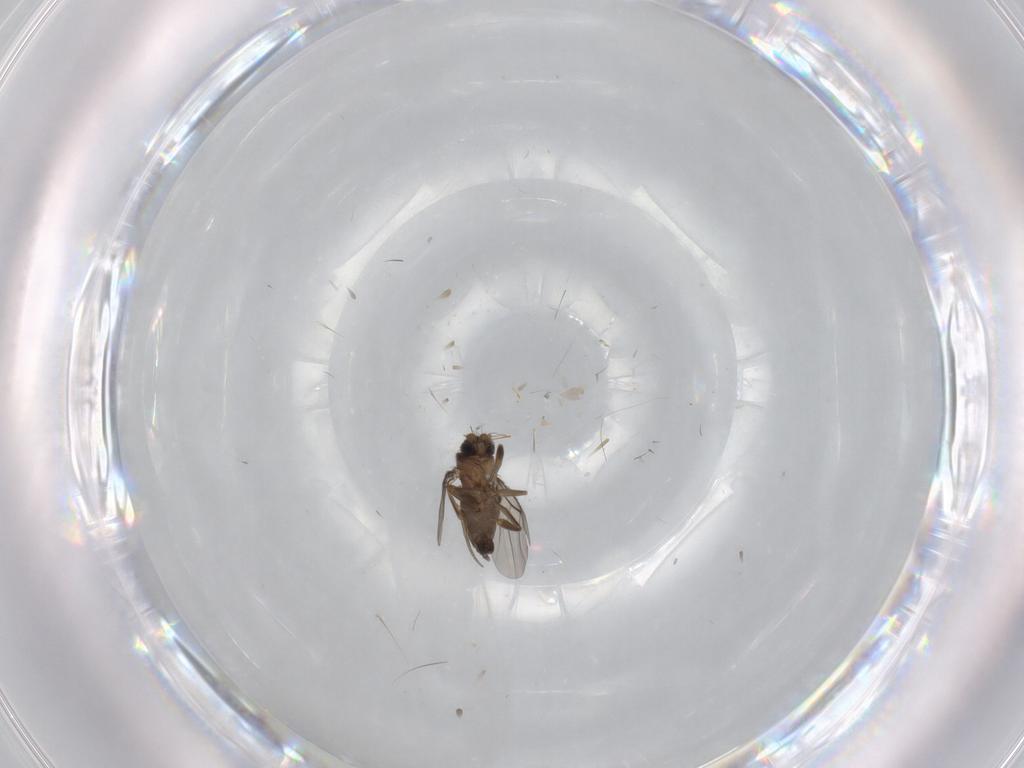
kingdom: Animalia
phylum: Arthropoda
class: Insecta
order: Diptera
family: Phoridae
